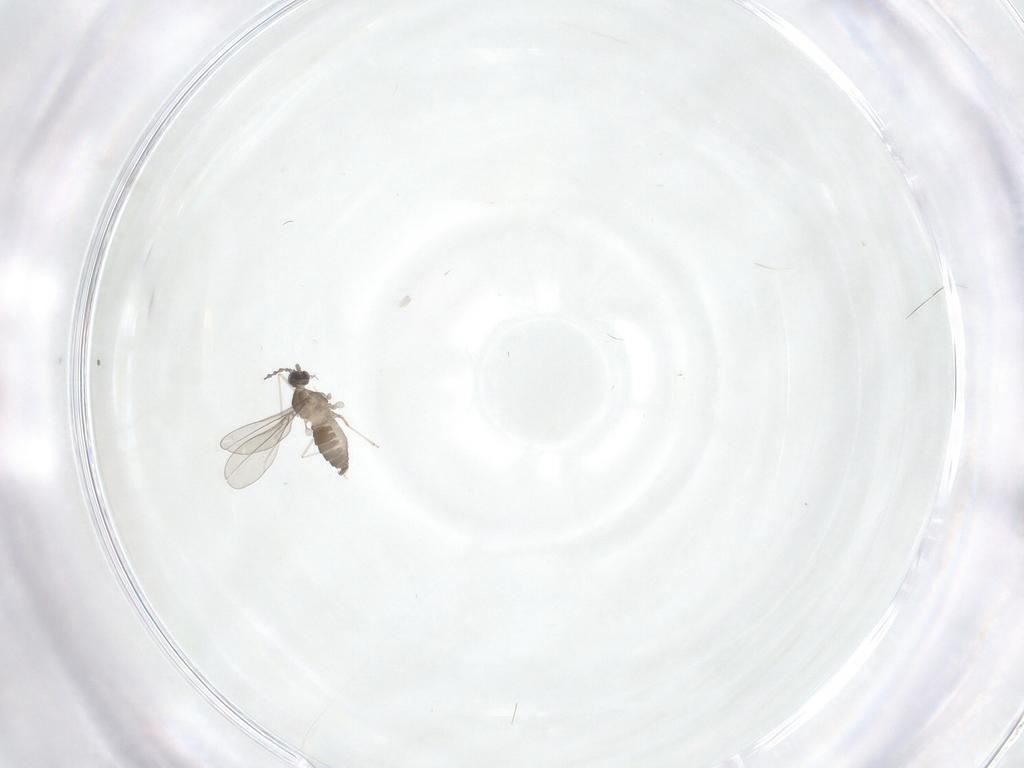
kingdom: Animalia
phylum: Arthropoda
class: Insecta
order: Diptera
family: Cecidomyiidae
